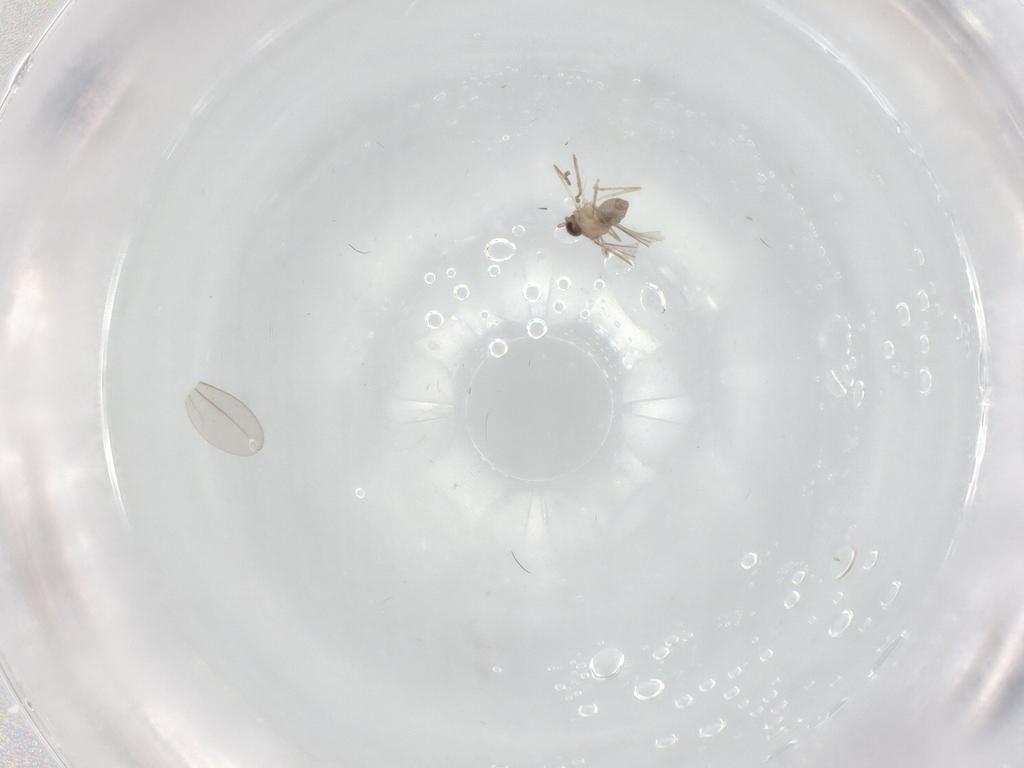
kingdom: Animalia
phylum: Arthropoda
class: Insecta
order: Diptera
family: Cecidomyiidae
